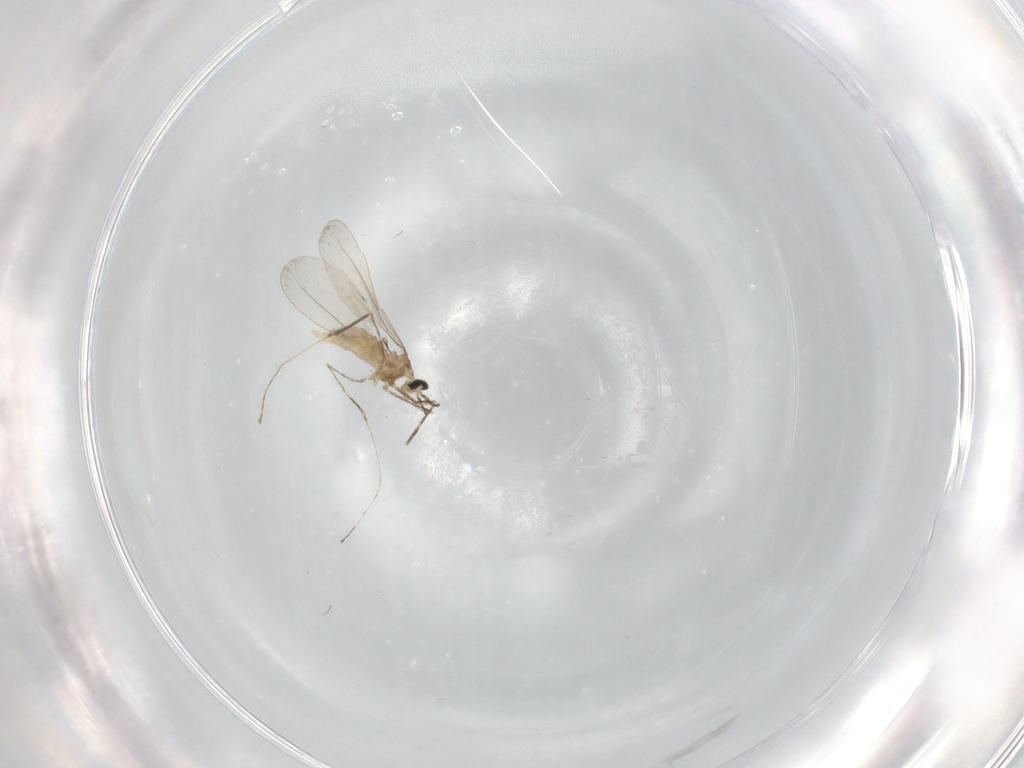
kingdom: Animalia
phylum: Arthropoda
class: Insecta
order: Diptera
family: Cecidomyiidae
